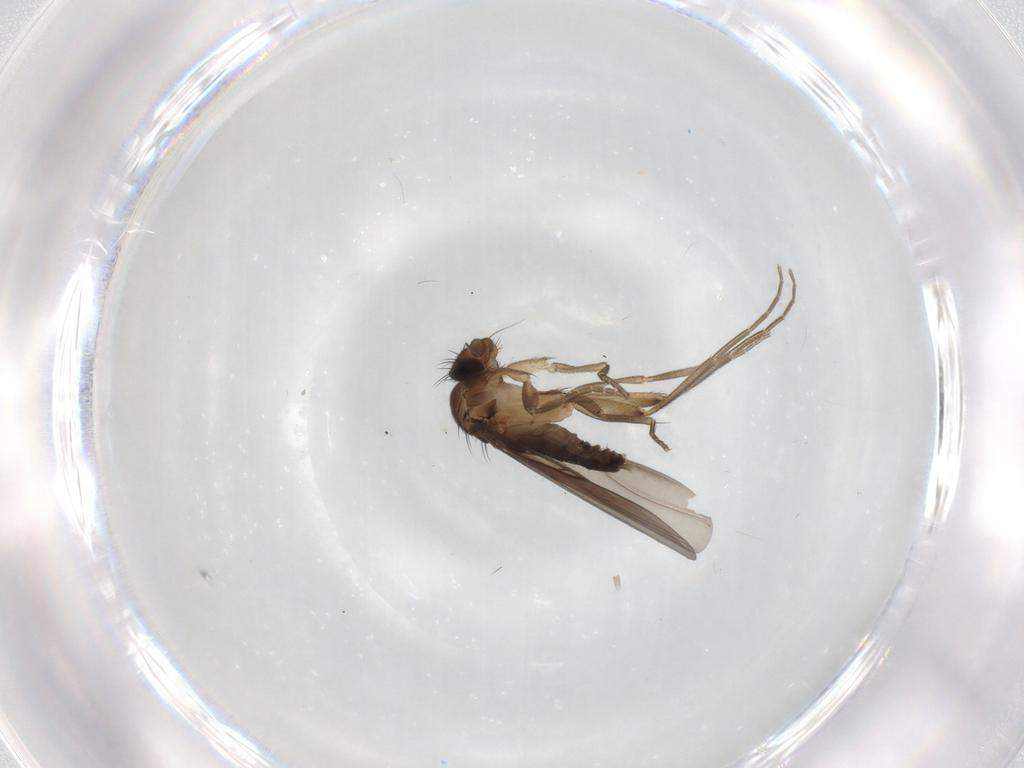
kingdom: Animalia
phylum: Arthropoda
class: Insecta
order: Diptera
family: Phoridae
